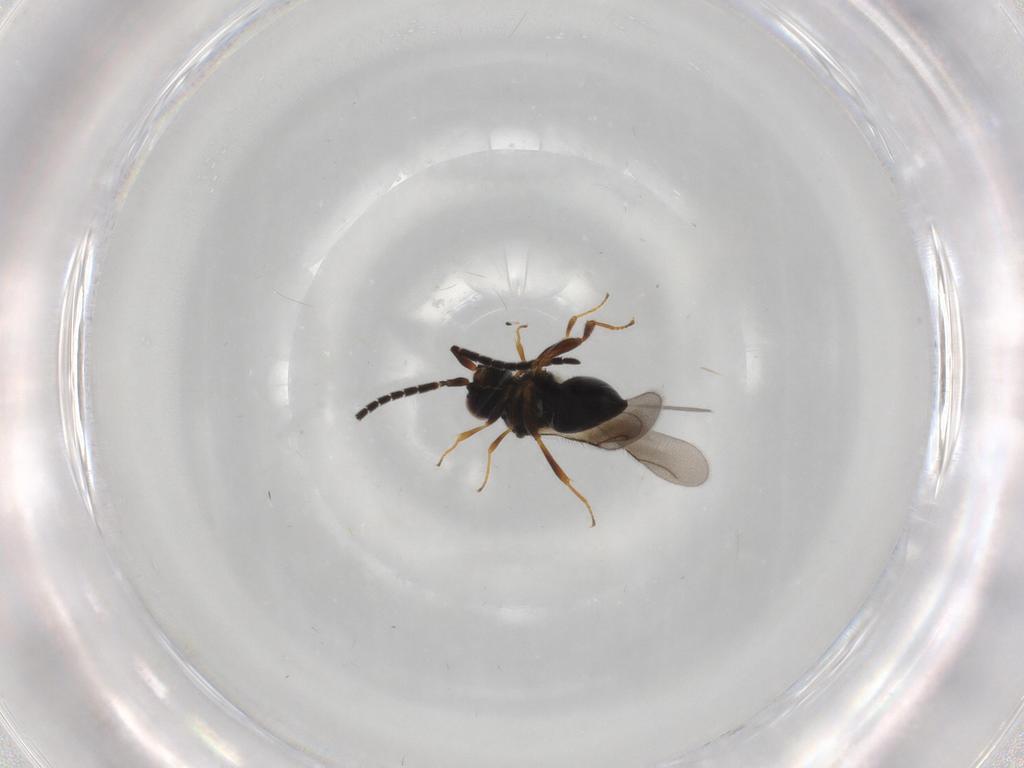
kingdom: Animalia
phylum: Arthropoda
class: Insecta
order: Hymenoptera
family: Ceraphronidae
